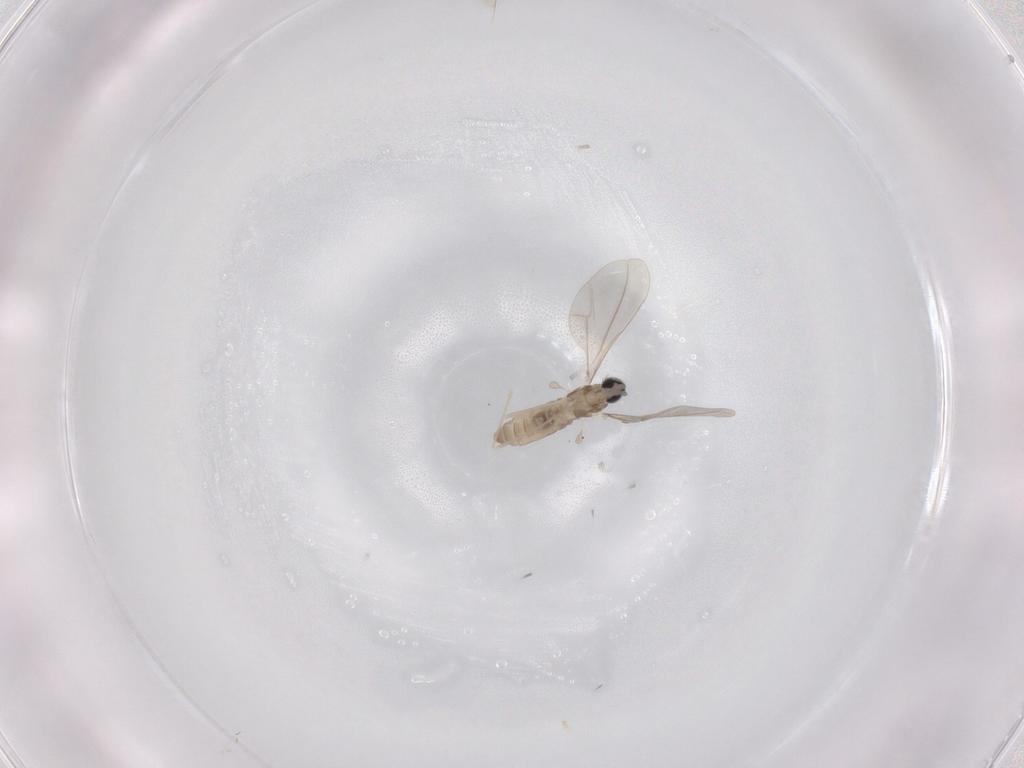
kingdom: Animalia
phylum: Arthropoda
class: Insecta
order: Diptera
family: Cecidomyiidae
